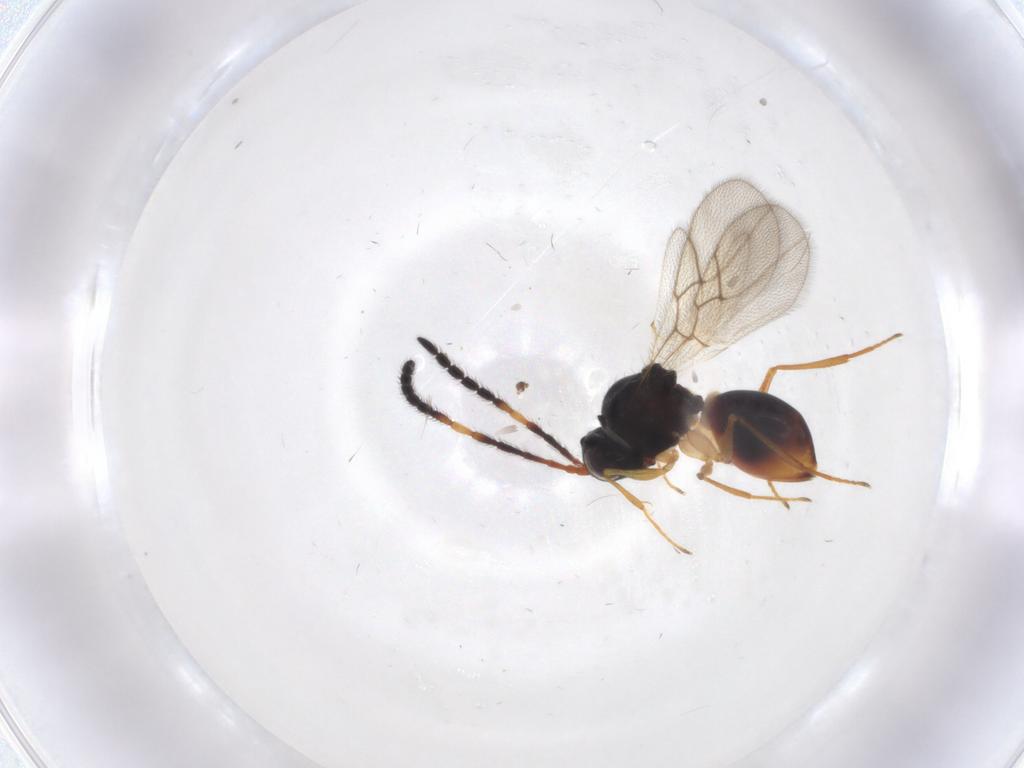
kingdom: Animalia
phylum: Arthropoda
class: Insecta
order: Hymenoptera
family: Figitidae
